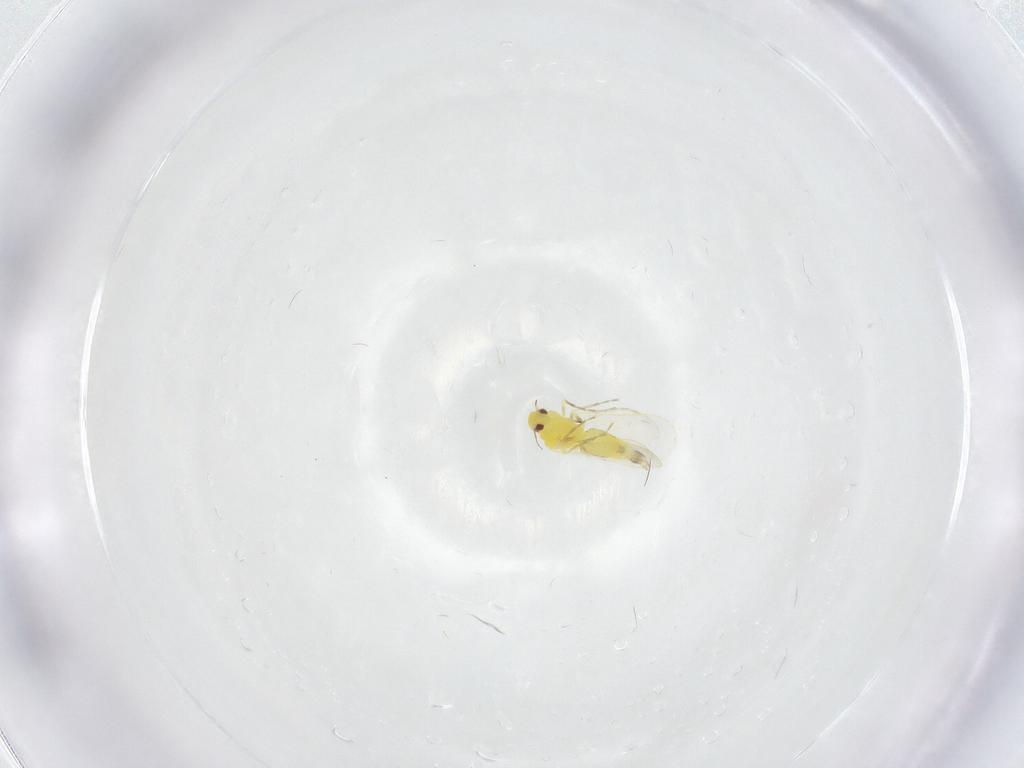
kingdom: Animalia
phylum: Arthropoda
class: Insecta
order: Hemiptera
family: Aleyrodidae
